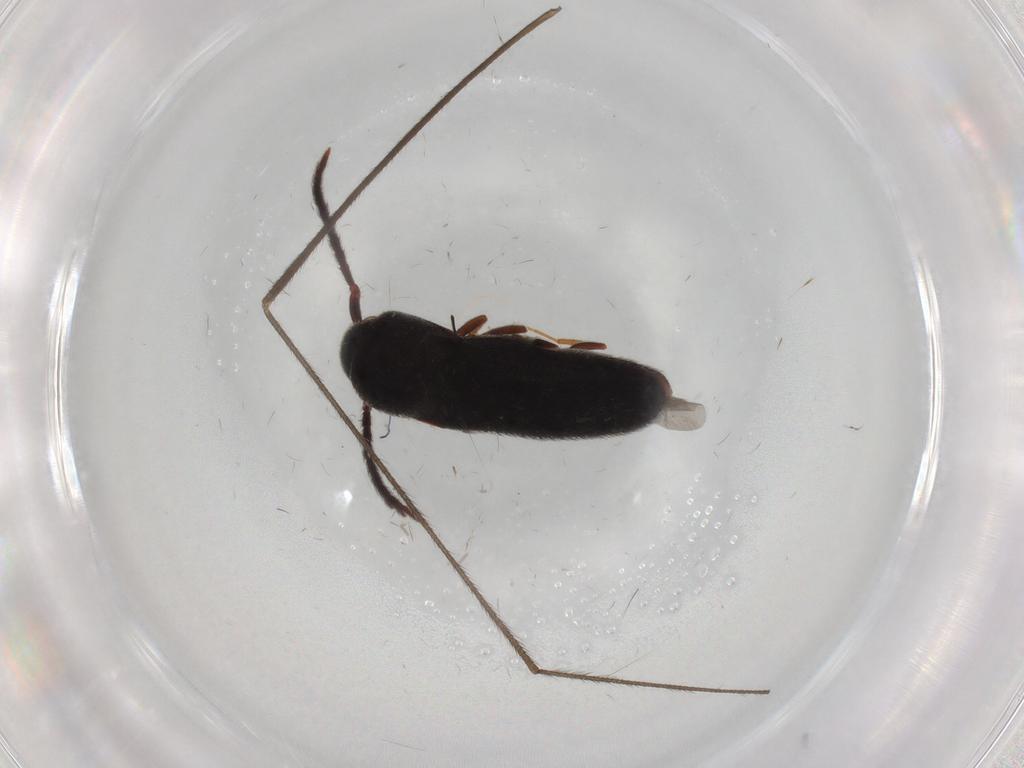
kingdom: Animalia
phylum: Arthropoda
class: Insecta
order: Coleoptera
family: Eucnemidae
